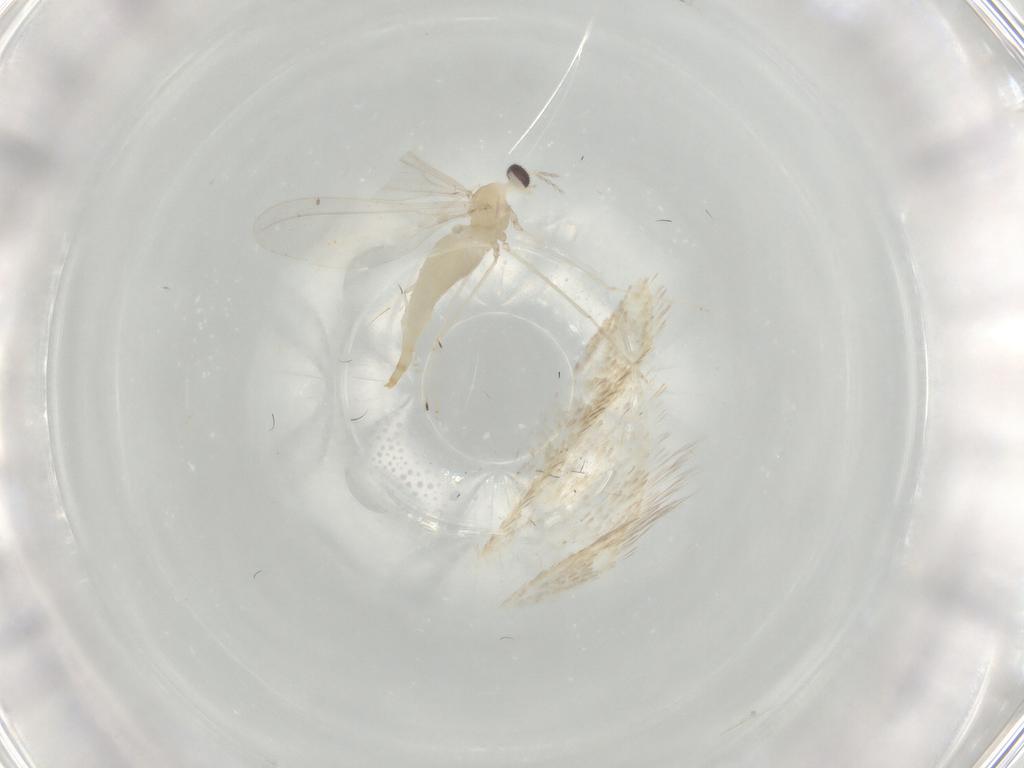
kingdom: Animalia
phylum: Arthropoda
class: Insecta
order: Diptera
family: Cecidomyiidae
